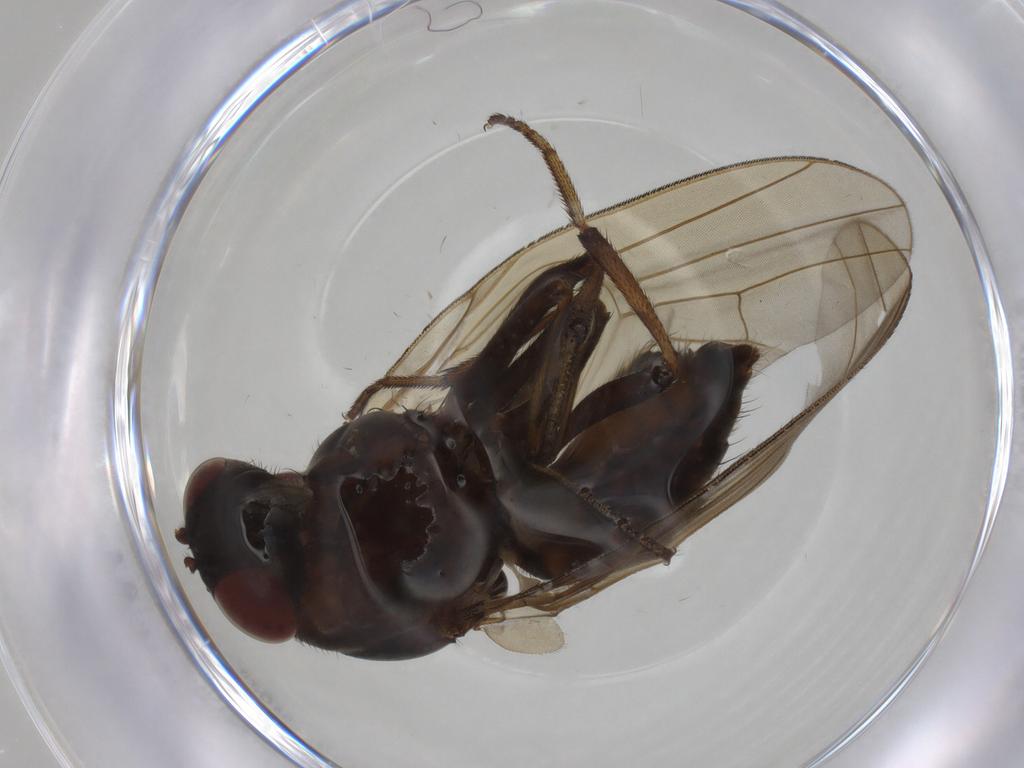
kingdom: Animalia
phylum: Arthropoda
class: Insecta
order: Diptera
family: Psychodidae
